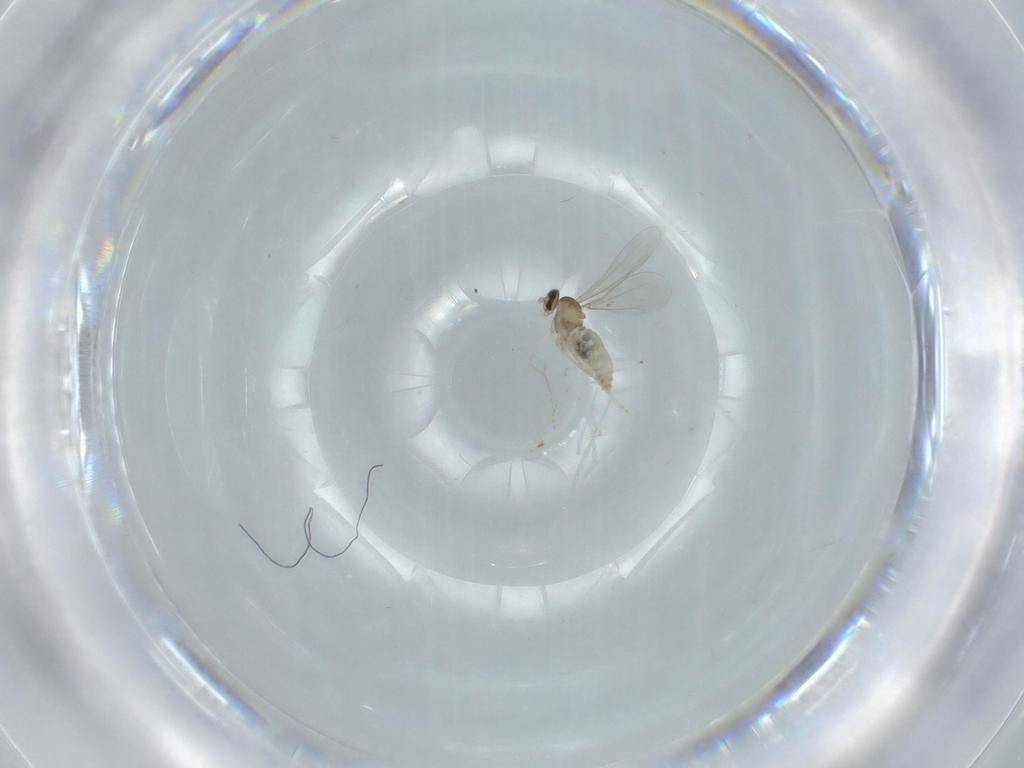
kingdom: Animalia
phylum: Arthropoda
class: Insecta
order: Diptera
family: Cecidomyiidae
